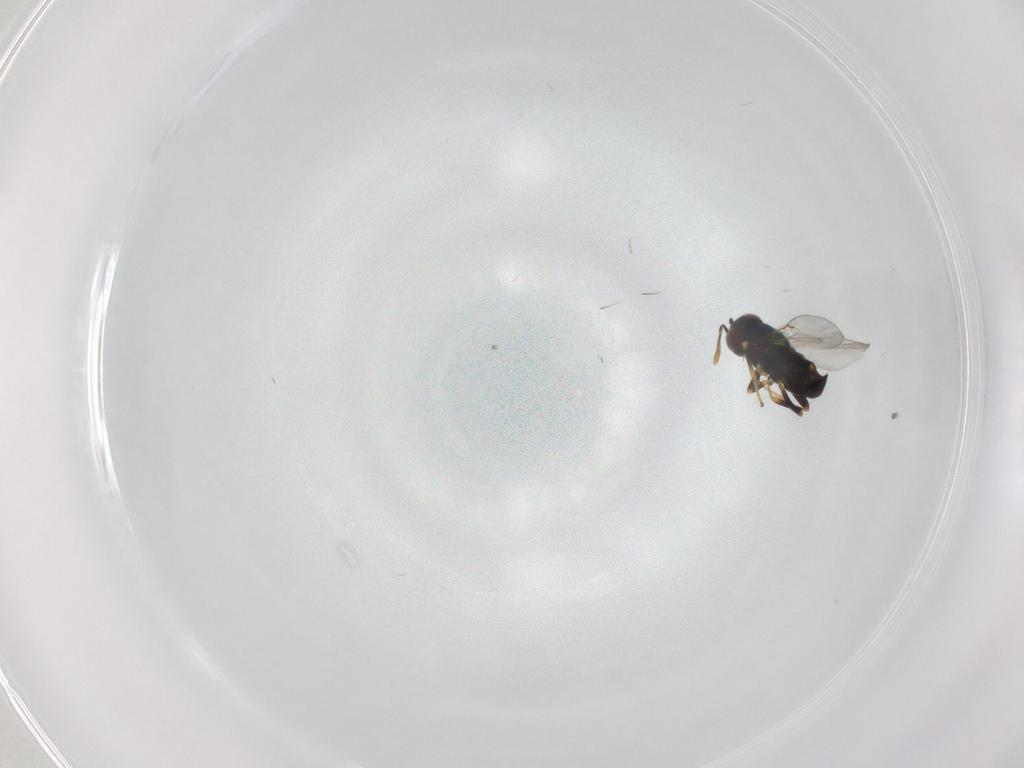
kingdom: Animalia
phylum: Arthropoda
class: Insecta
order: Hymenoptera
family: Encyrtidae
